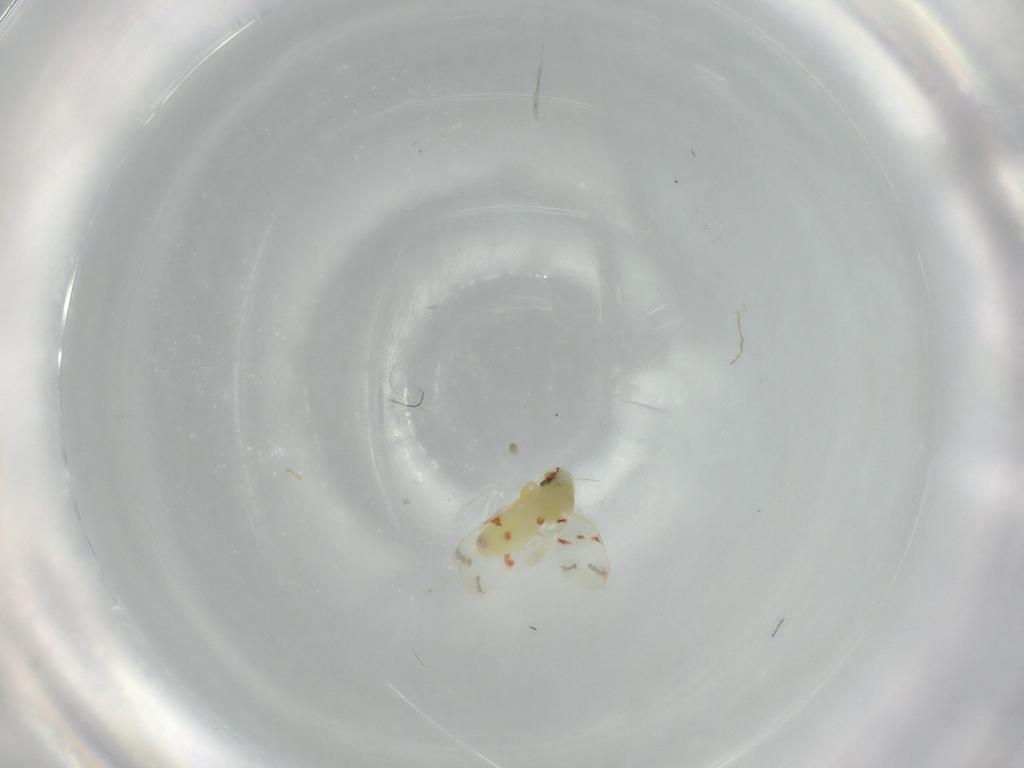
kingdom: Animalia
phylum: Arthropoda
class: Insecta
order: Hemiptera
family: Aleyrodidae
